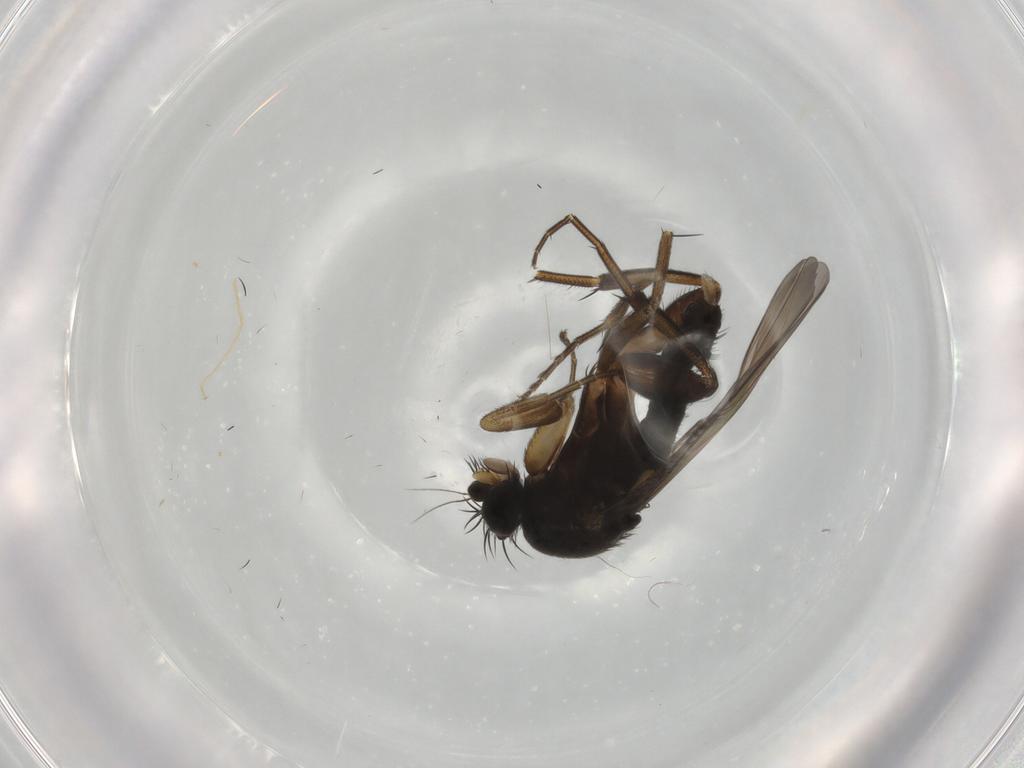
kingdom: Animalia
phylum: Arthropoda
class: Insecta
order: Diptera
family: Phoridae
